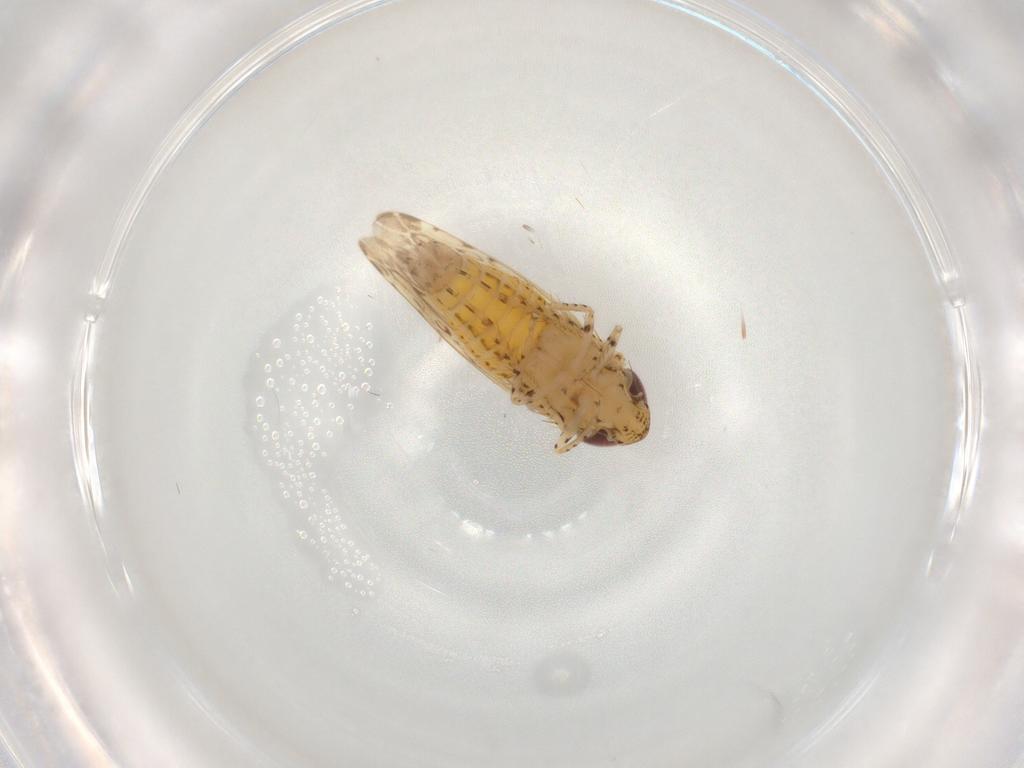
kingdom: Animalia
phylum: Arthropoda
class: Insecta
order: Hemiptera
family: Cicadellidae
